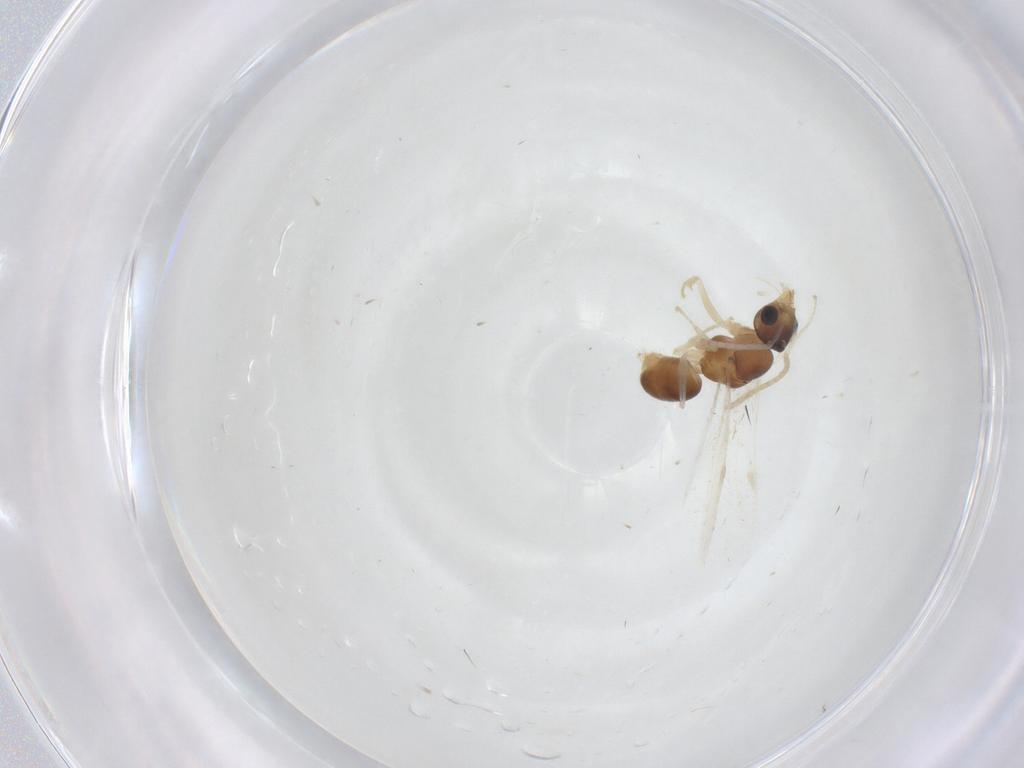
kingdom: Animalia
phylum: Arthropoda
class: Insecta
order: Hymenoptera
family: Formicidae
